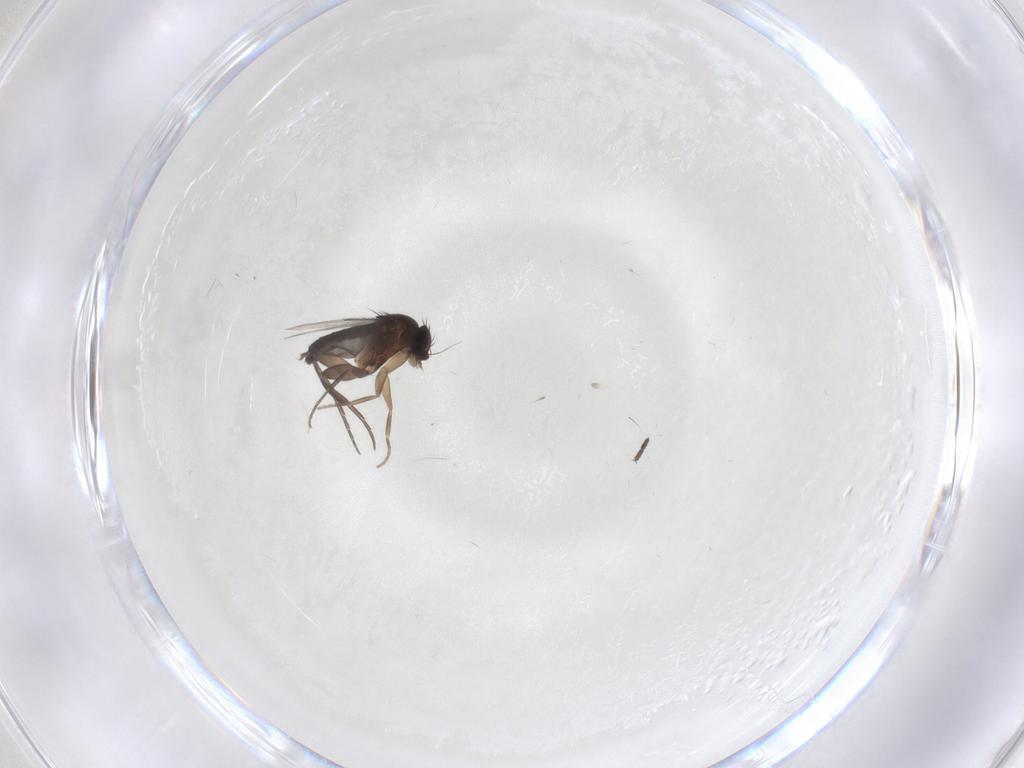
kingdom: Animalia
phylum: Arthropoda
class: Insecta
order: Diptera
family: Phoridae
